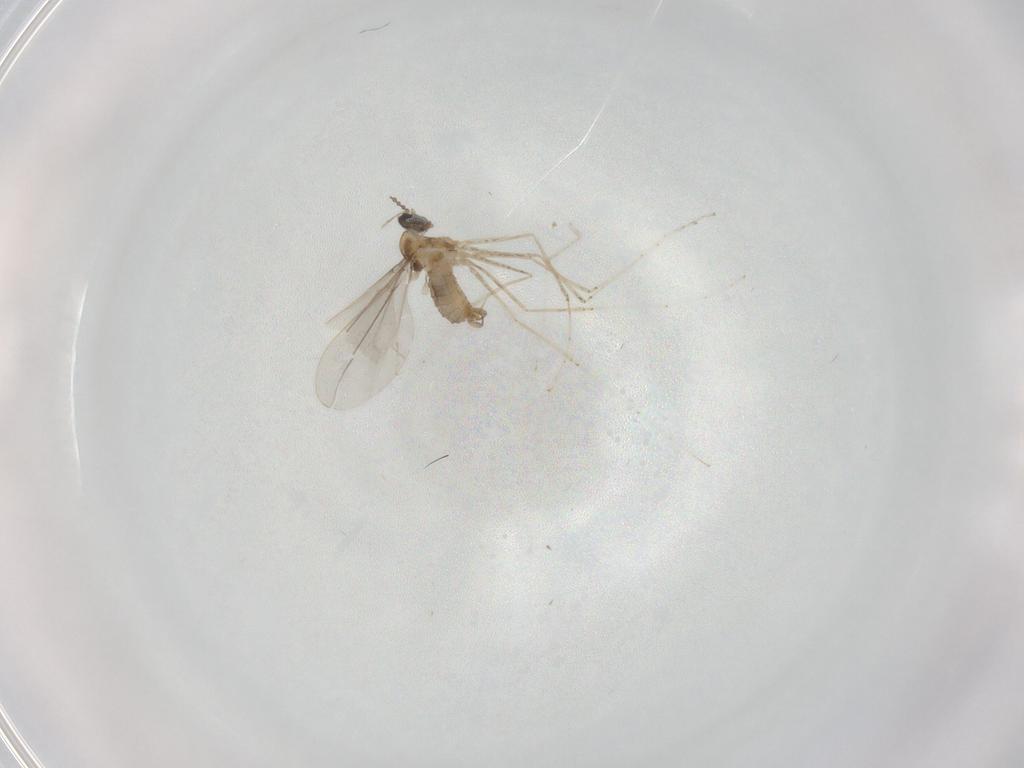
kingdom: Animalia
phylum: Arthropoda
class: Insecta
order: Diptera
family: Cecidomyiidae
